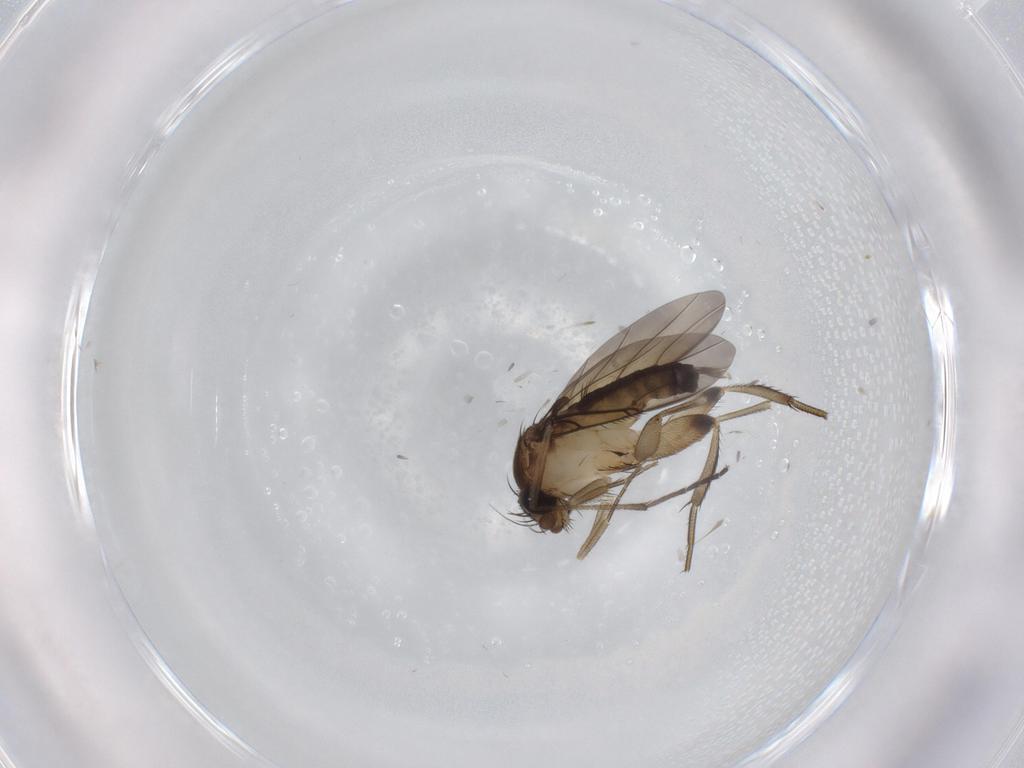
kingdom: Animalia
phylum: Arthropoda
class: Insecta
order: Diptera
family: Sciaridae
